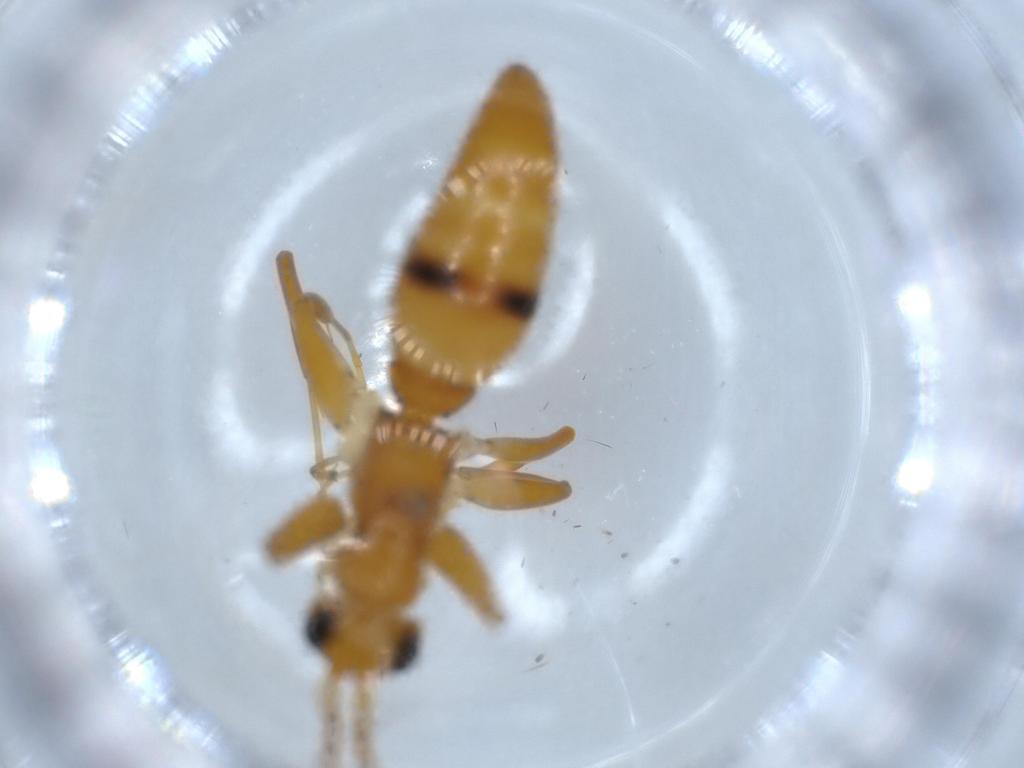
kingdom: Animalia
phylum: Arthropoda
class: Insecta
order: Hymenoptera
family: Rhopalosomatidae
